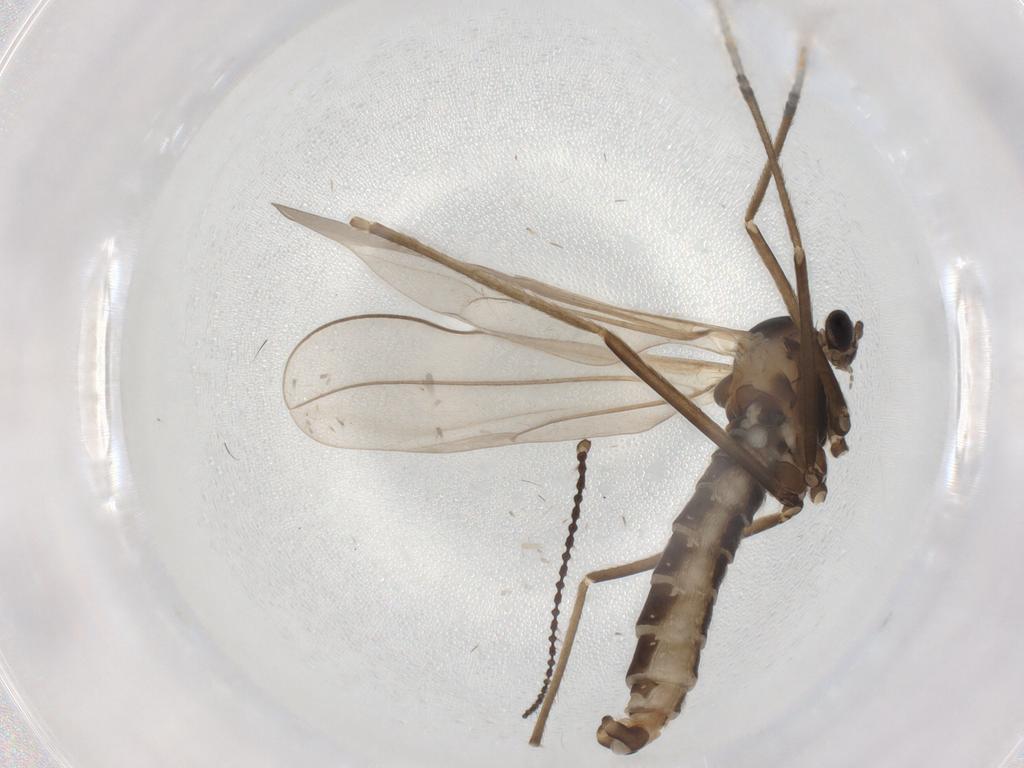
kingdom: Animalia
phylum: Arthropoda
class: Insecta
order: Diptera
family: Cecidomyiidae
